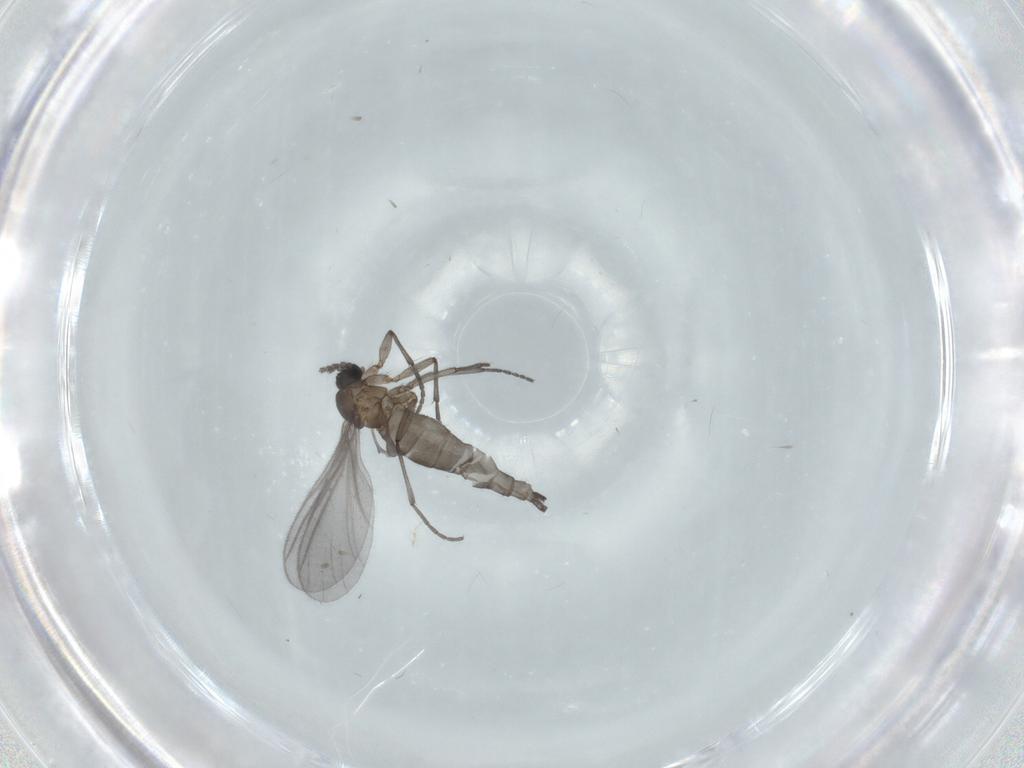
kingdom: Animalia
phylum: Arthropoda
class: Insecta
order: Diptera
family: Sciaridae
